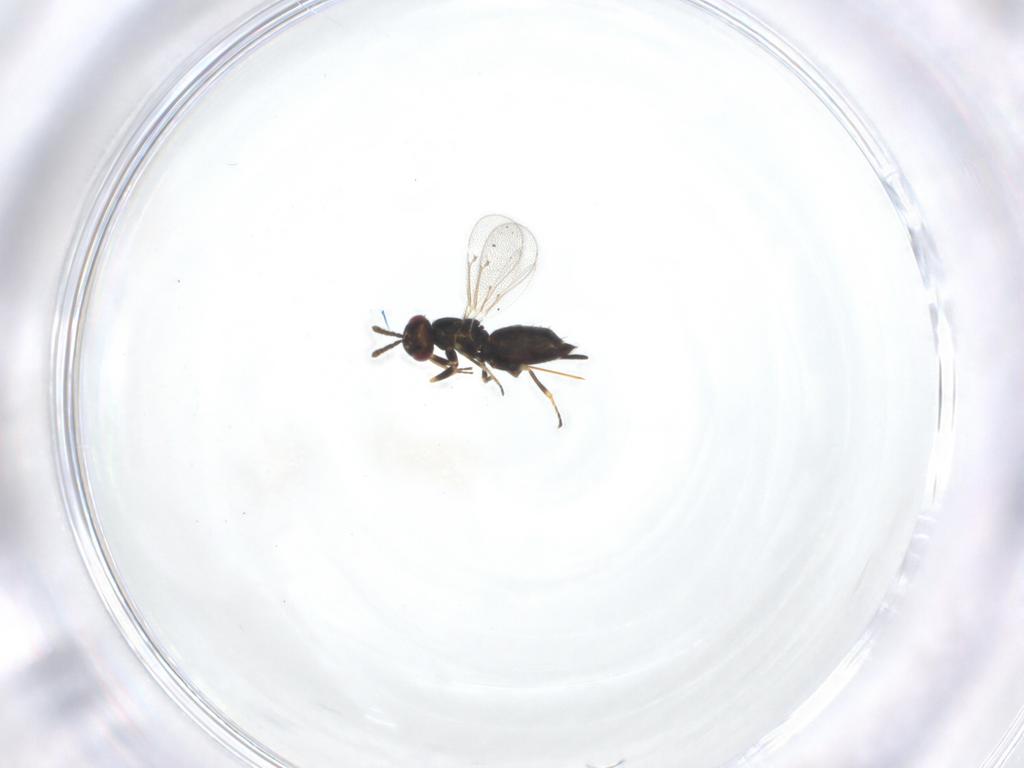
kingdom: Animalia
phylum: Arthropoda
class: Insecta
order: Hymenoptera
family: Eulophidae
